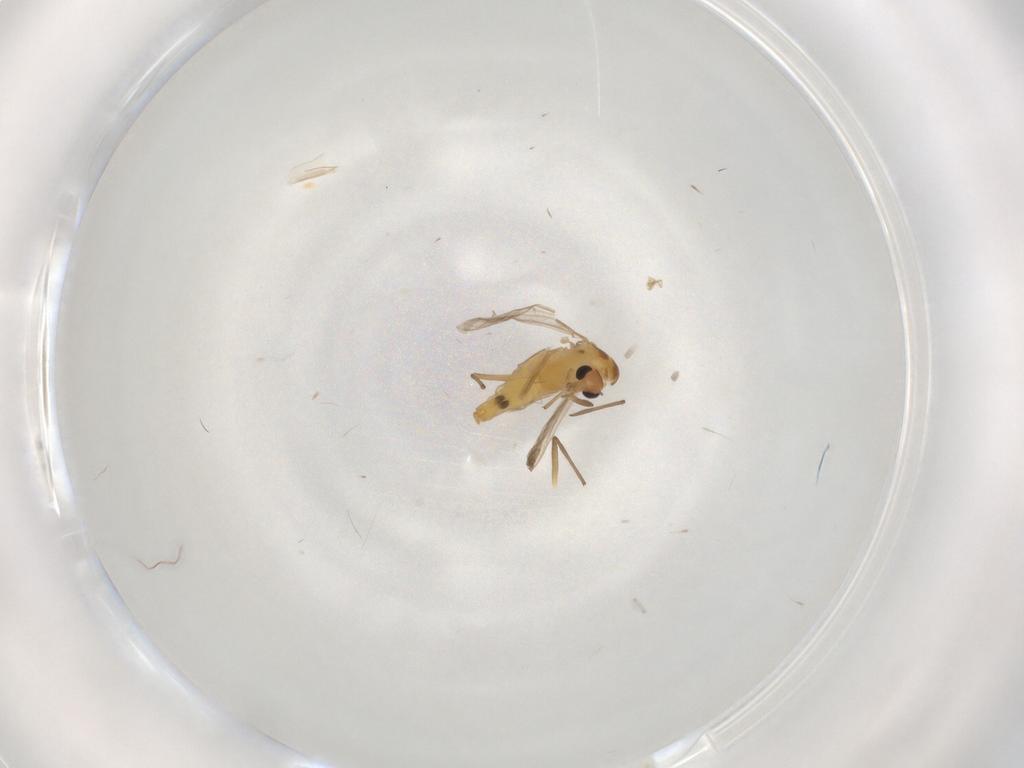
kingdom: Animalia
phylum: Arthropoda
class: Insecta
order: Diptera
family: Cecidomyiidae
